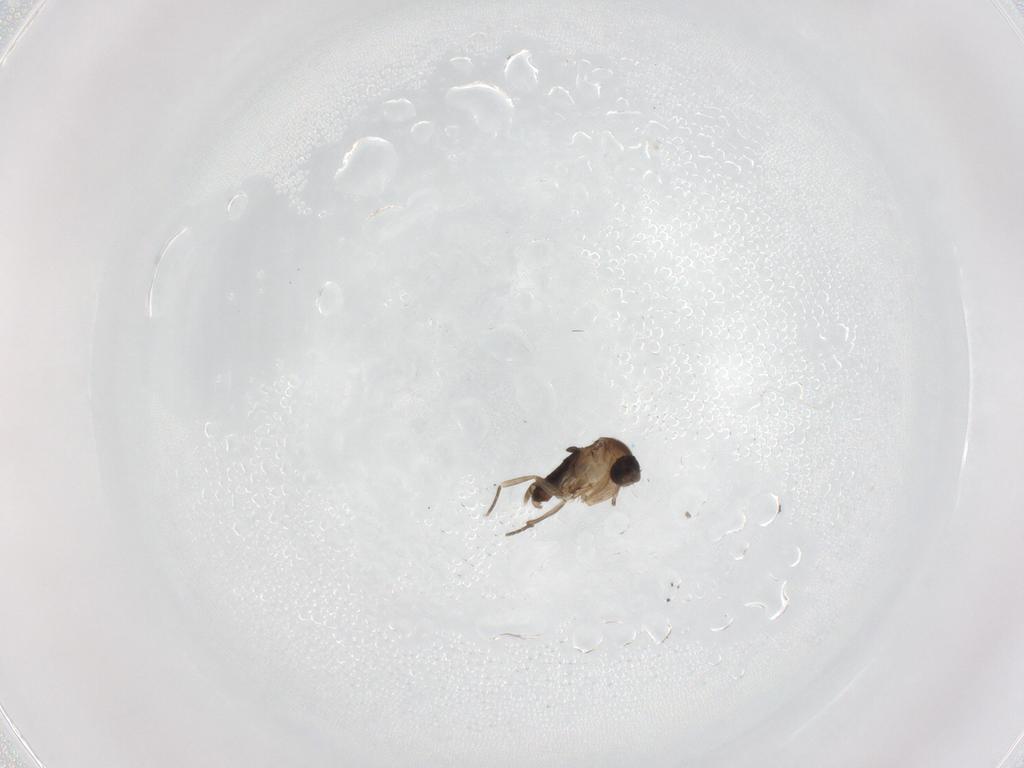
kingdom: Animalia
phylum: Arthropoda
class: Insecta
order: Diptera
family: Phoridae
